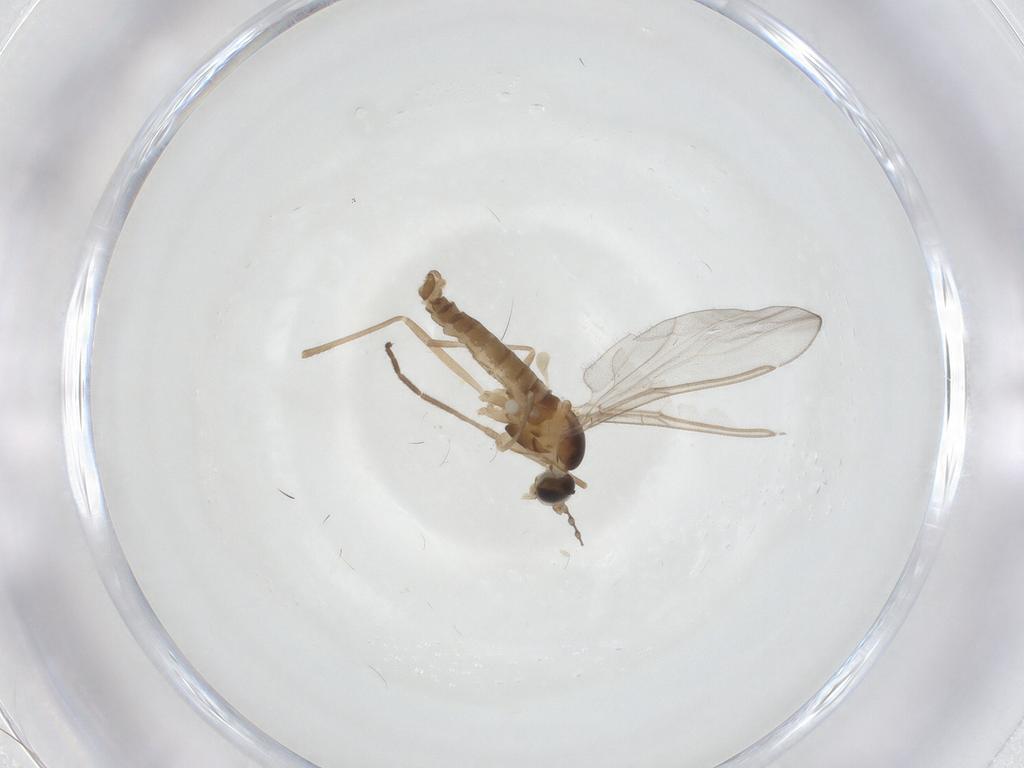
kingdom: Animalia
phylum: Arthropoda
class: Insecta
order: Diptera
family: Cecidomyiidae
